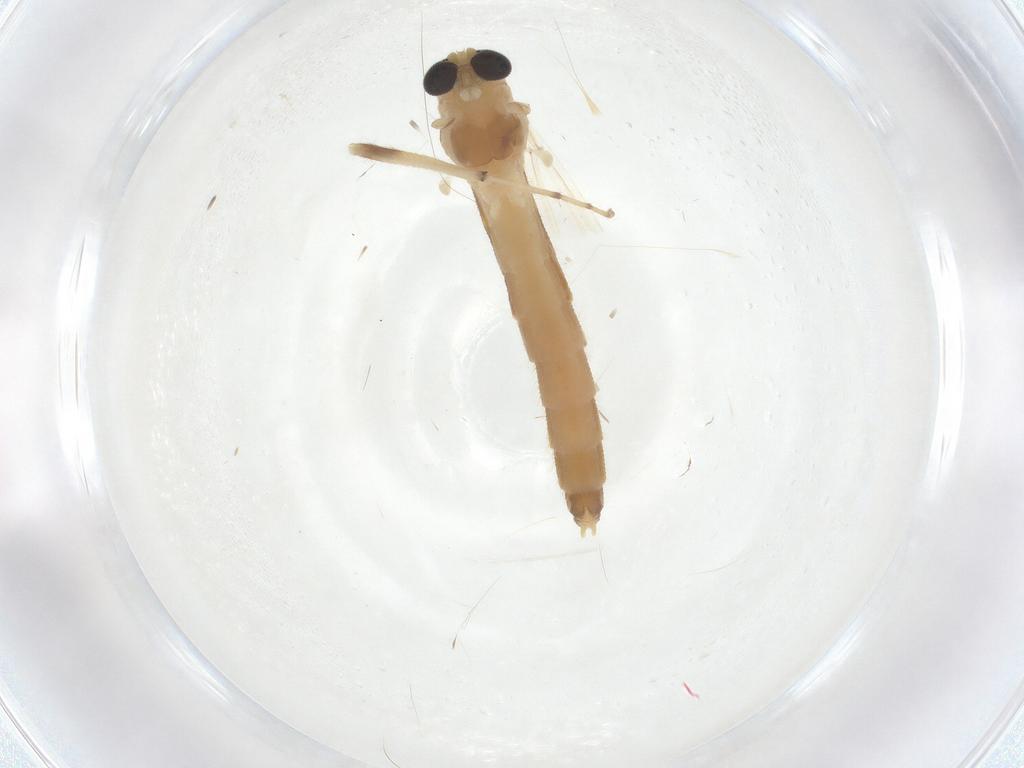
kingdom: Animalia
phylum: Arthropoda
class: Insecta
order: Diptera
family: Chironomidae
